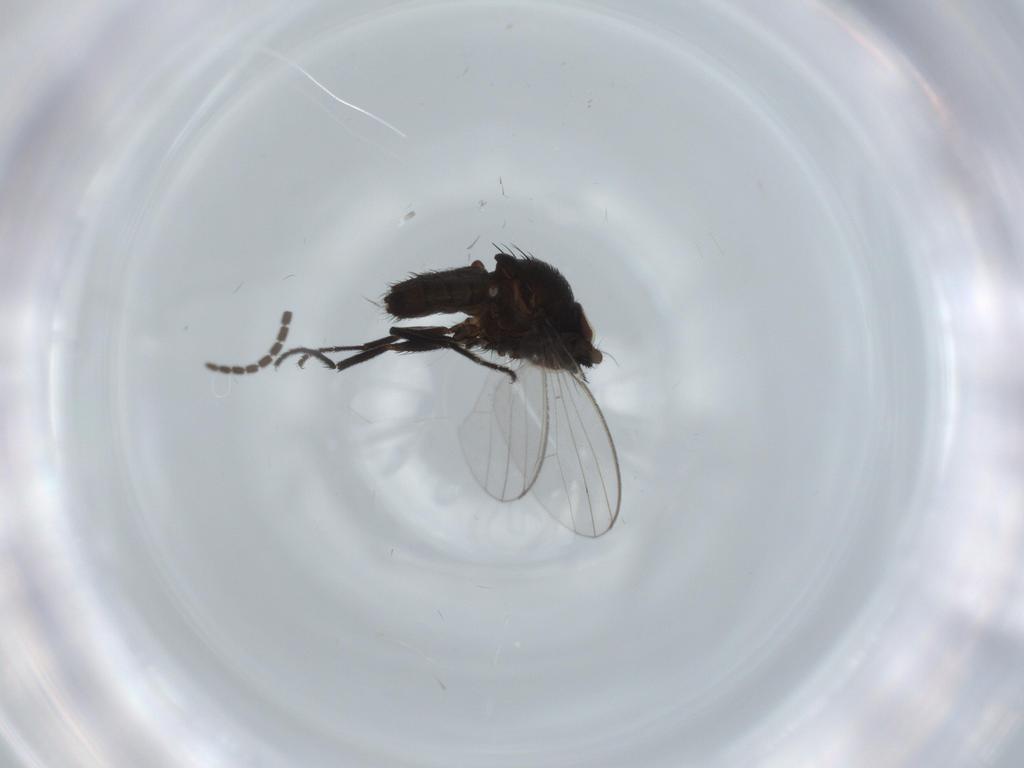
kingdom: Animalia
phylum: Arthropoda
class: Insecta
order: Diptera
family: Sciaridae
